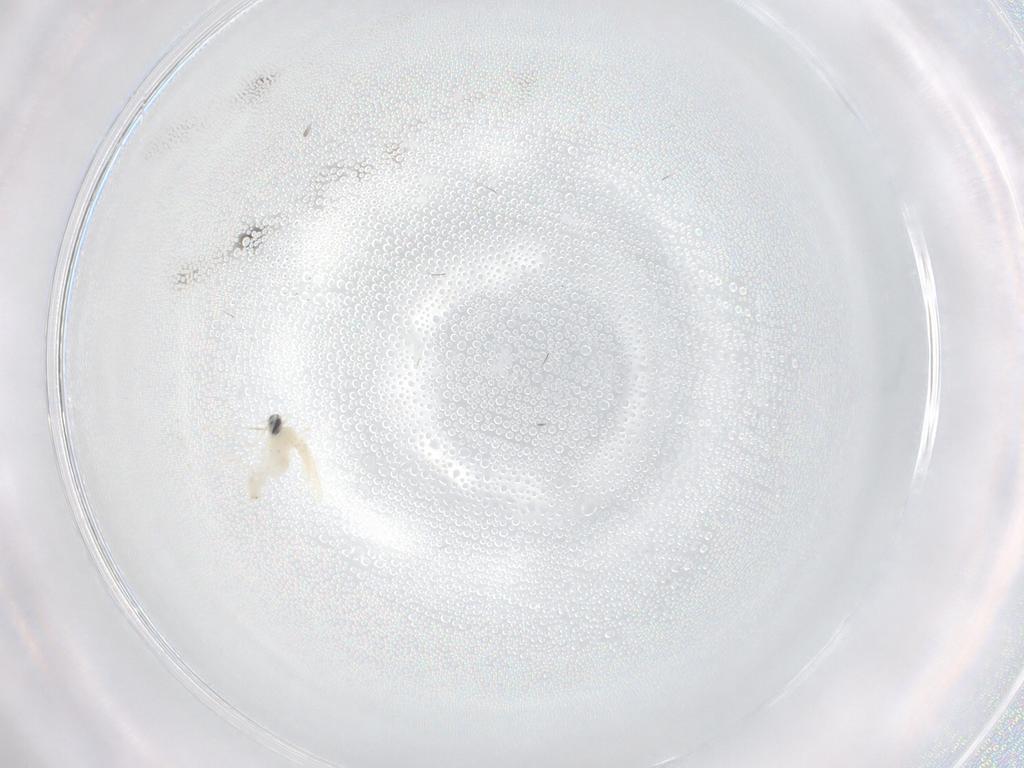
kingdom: Animalia
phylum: Arthropoda
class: Insecta
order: Diptera
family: Cecidomyiidae
